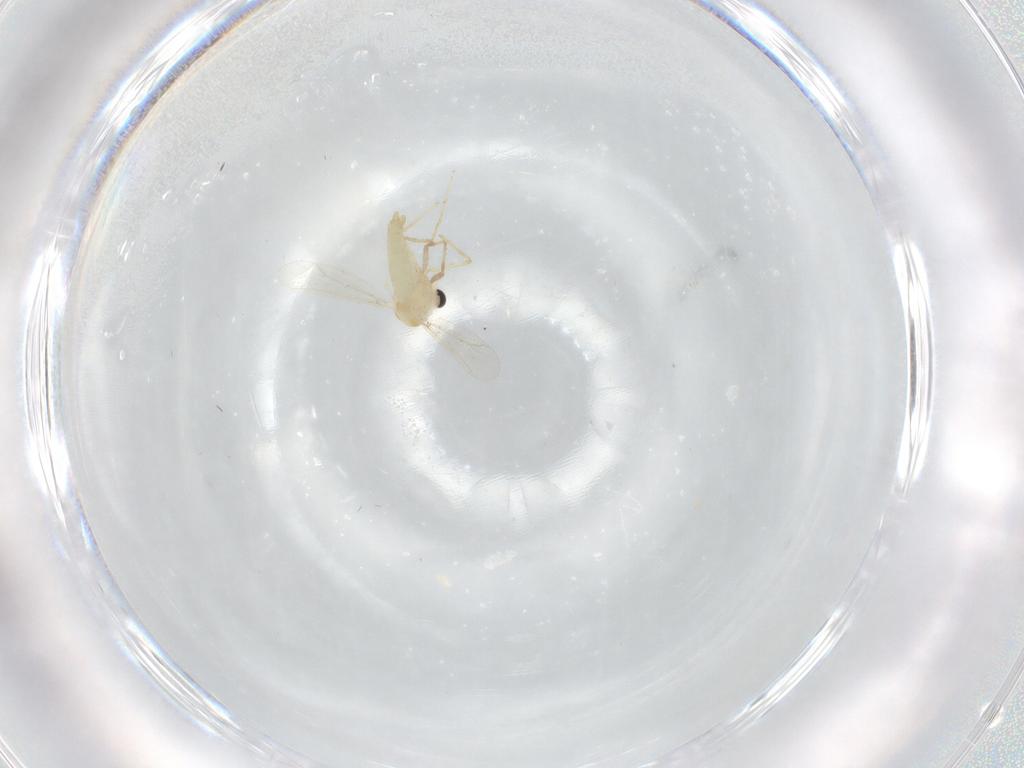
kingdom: Animalia
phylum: Arthropoda
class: Insecta
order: Diptera
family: Chironomidae
